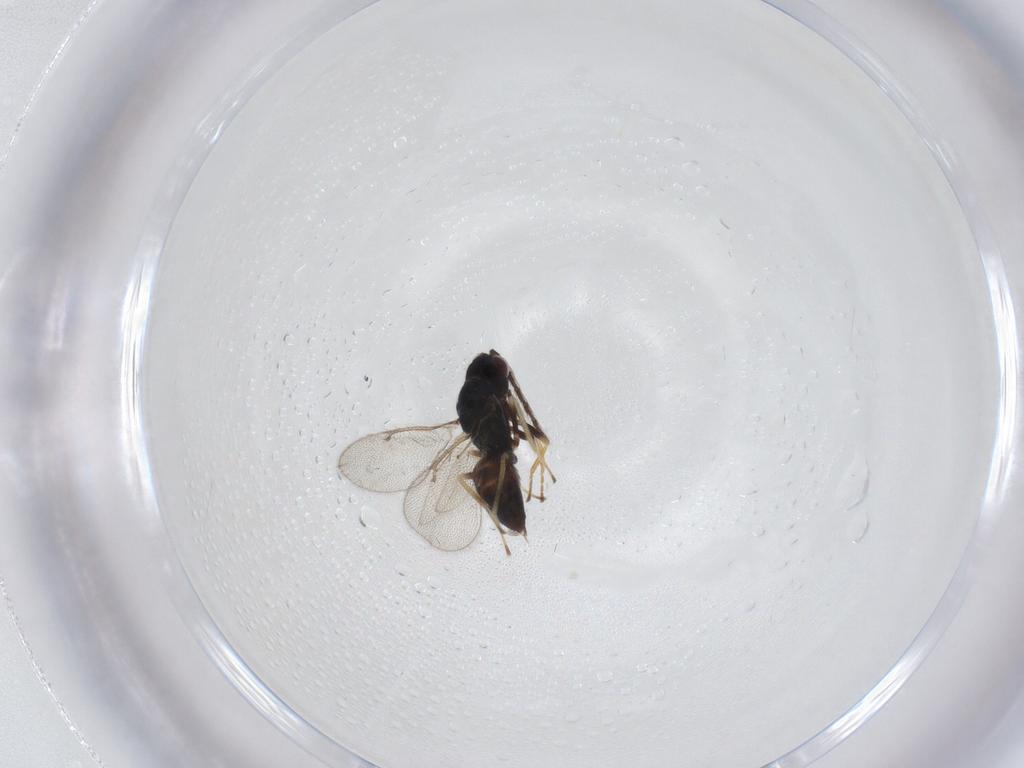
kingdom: Animalia
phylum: Arthropoda
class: Insecta
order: Hymenoptera
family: Eulophidae
